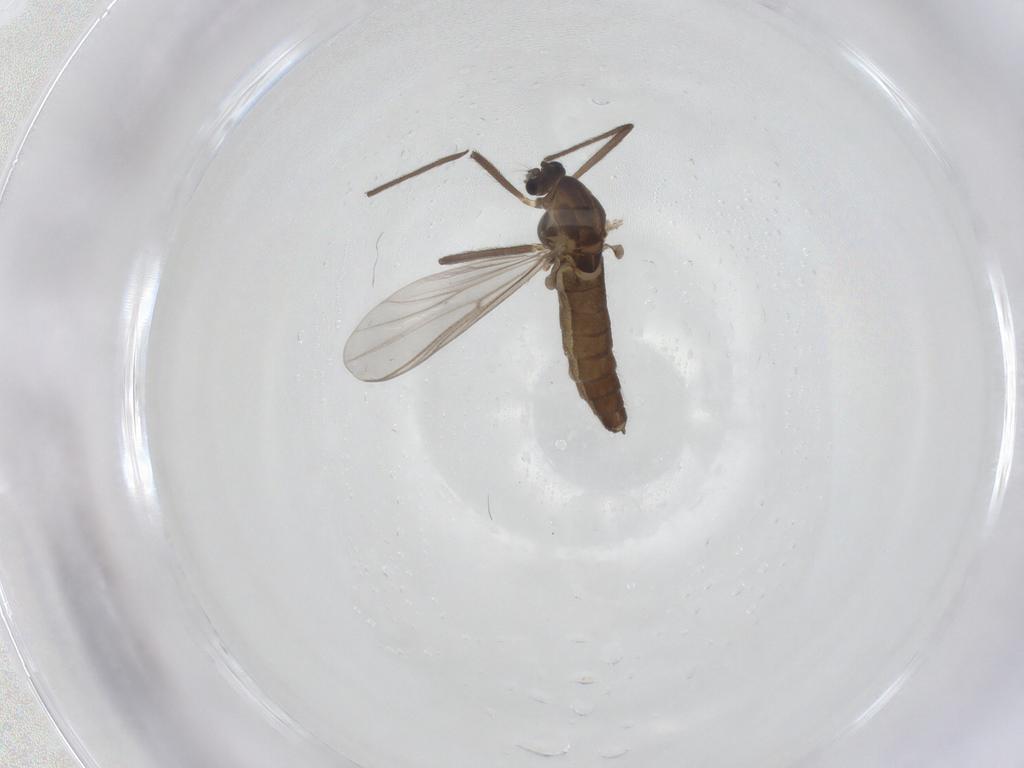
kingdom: Animalia
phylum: Arthropoda
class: Insecta
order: Diptera
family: Chironomidae
